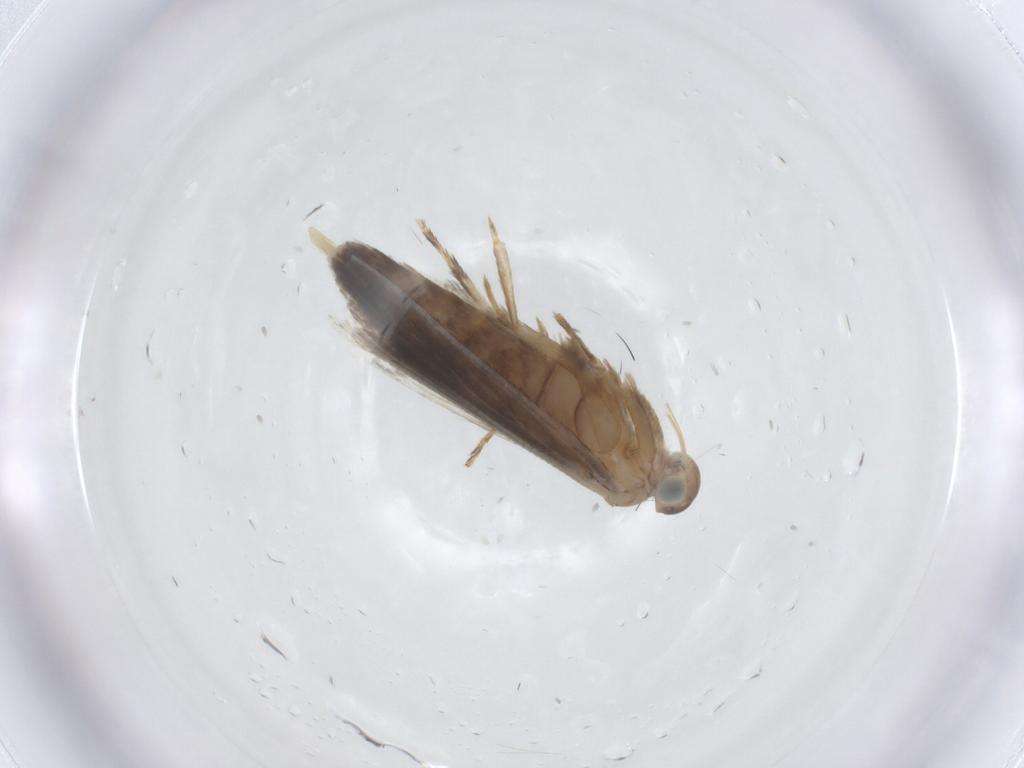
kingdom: Animalia
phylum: Arthropoda
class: Insecta
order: Lepidoptera
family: Glyphipterigidae
